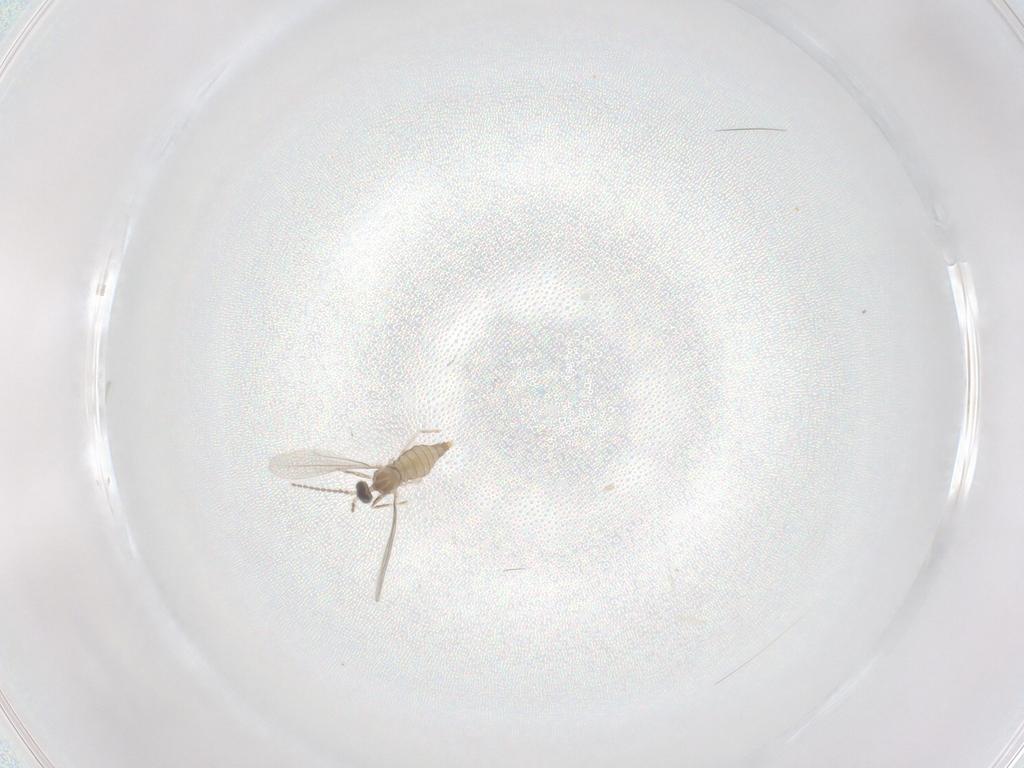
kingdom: Animalia
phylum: Arthropoda
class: Insecta
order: Diptera
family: Cecidomyiidae
